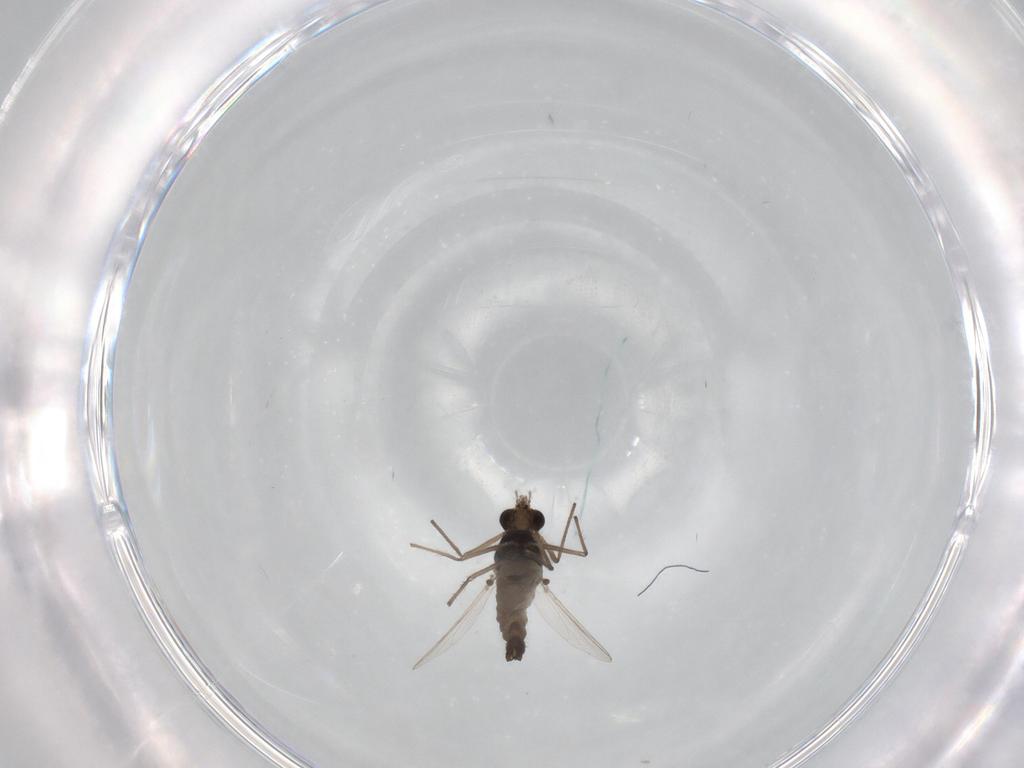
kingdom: Animalia
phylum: Arthropoda
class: Insecta
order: Diptera
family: Chironomidae
